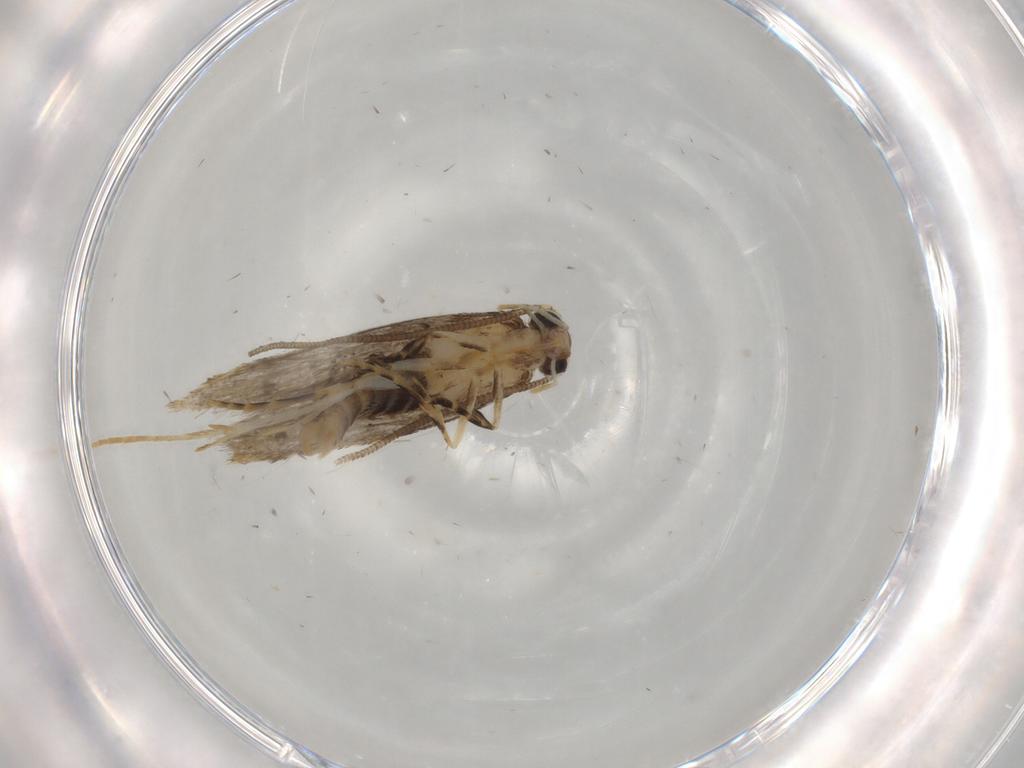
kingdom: Animalia
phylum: Arthropoda
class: Insecta
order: Lepidoptera
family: Tineidae
